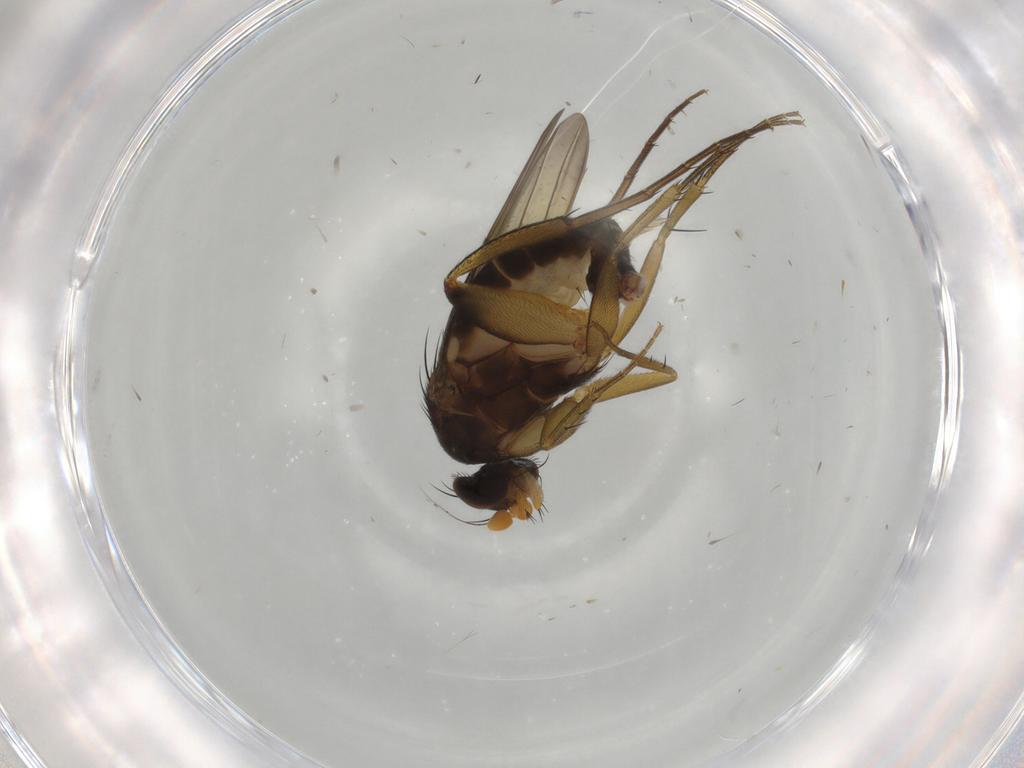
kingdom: Animalia
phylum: Arthropoda
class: Insecta
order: Diptera
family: Phoridae
